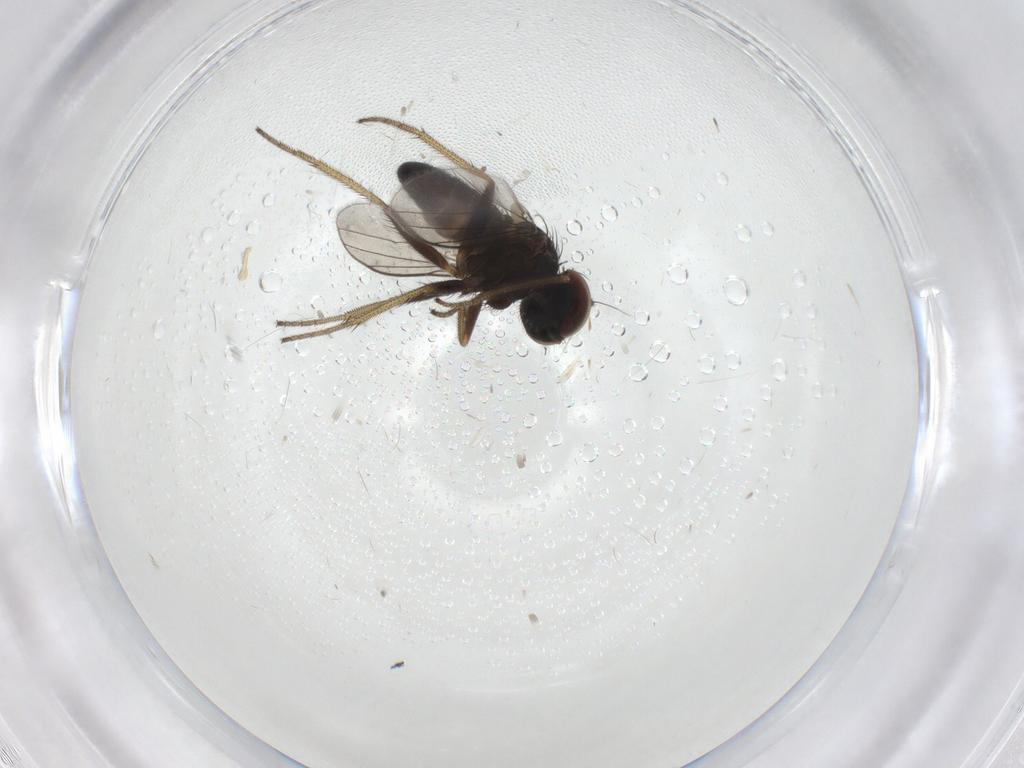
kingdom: Animalia
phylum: Arthropoda
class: Insecta
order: Diptera
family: Dolichopodidae
